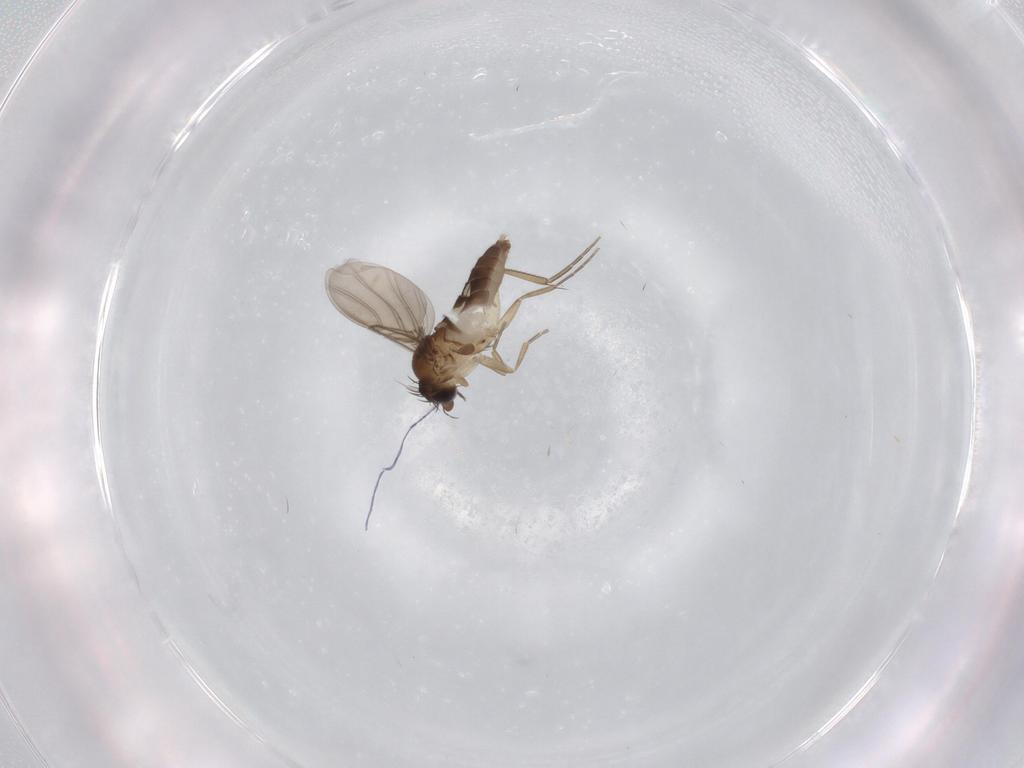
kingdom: Animalia
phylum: Arthropoda
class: Insecta
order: Diptera
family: Phoridae
